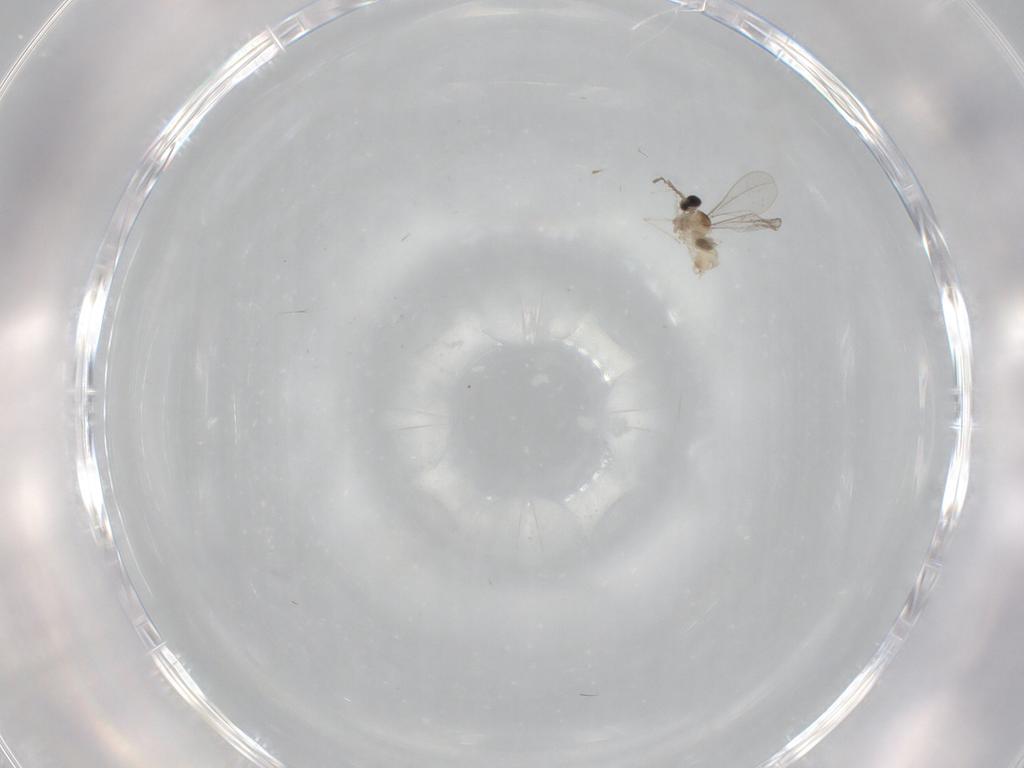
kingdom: Animalia
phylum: Arthropoda
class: Insecta
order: Diptera
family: Cecidomyiidae
